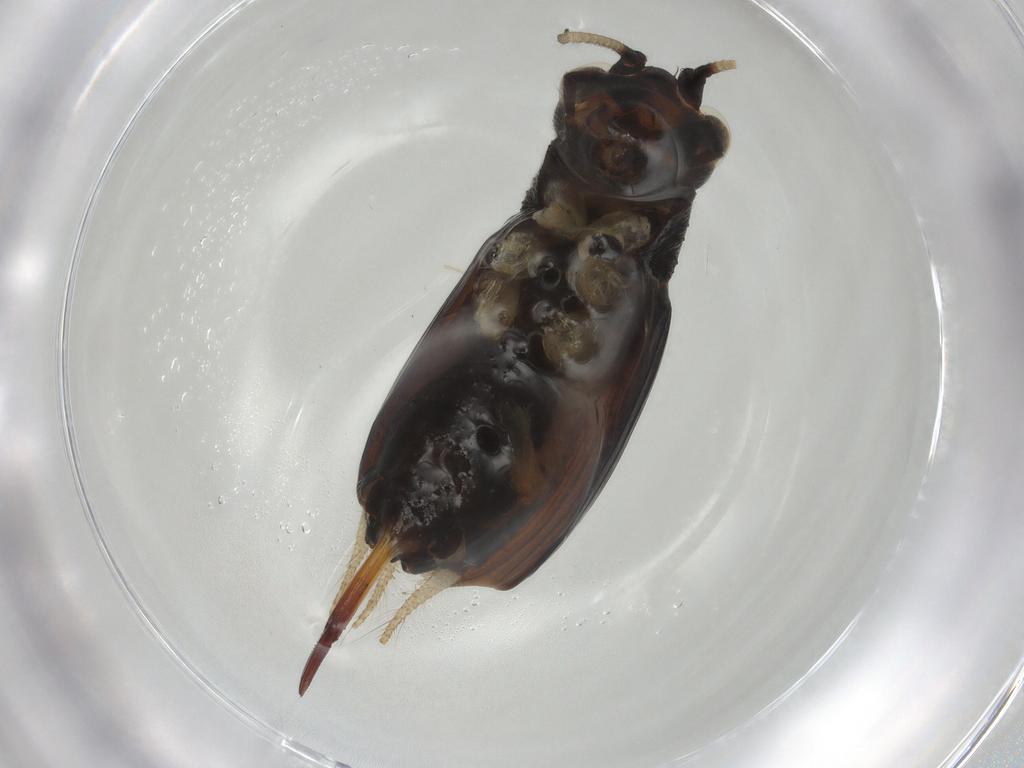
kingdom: Animalia
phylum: Arthropoda
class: Insecta
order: Orthoptera
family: Trigonidiidae
